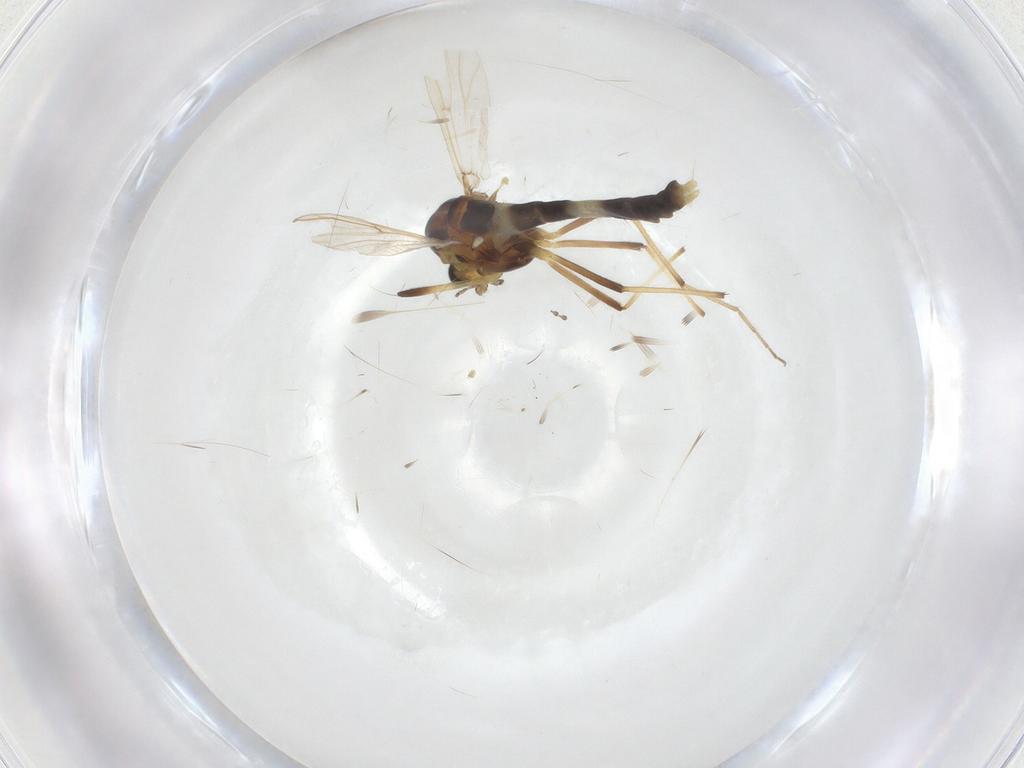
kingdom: Animalia
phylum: Arthropoda
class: Insecta
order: Diptera
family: Chironomidae
